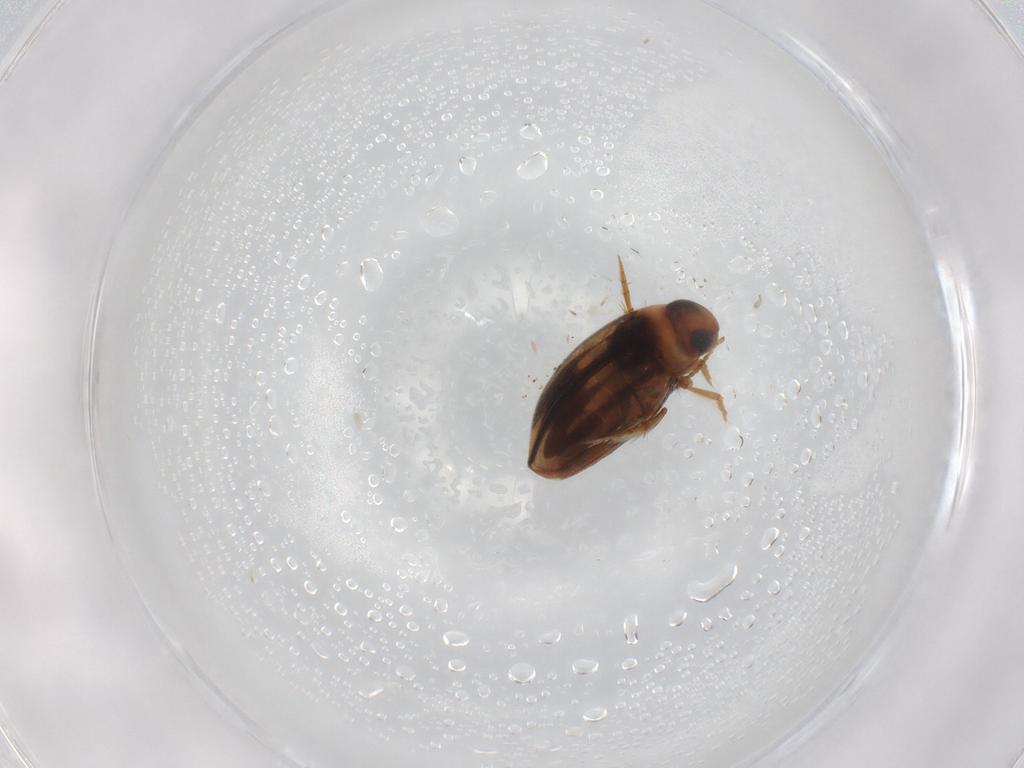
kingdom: Animalia
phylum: Arthropoda
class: Insecta
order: Coleoptera
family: Dytiscidae
